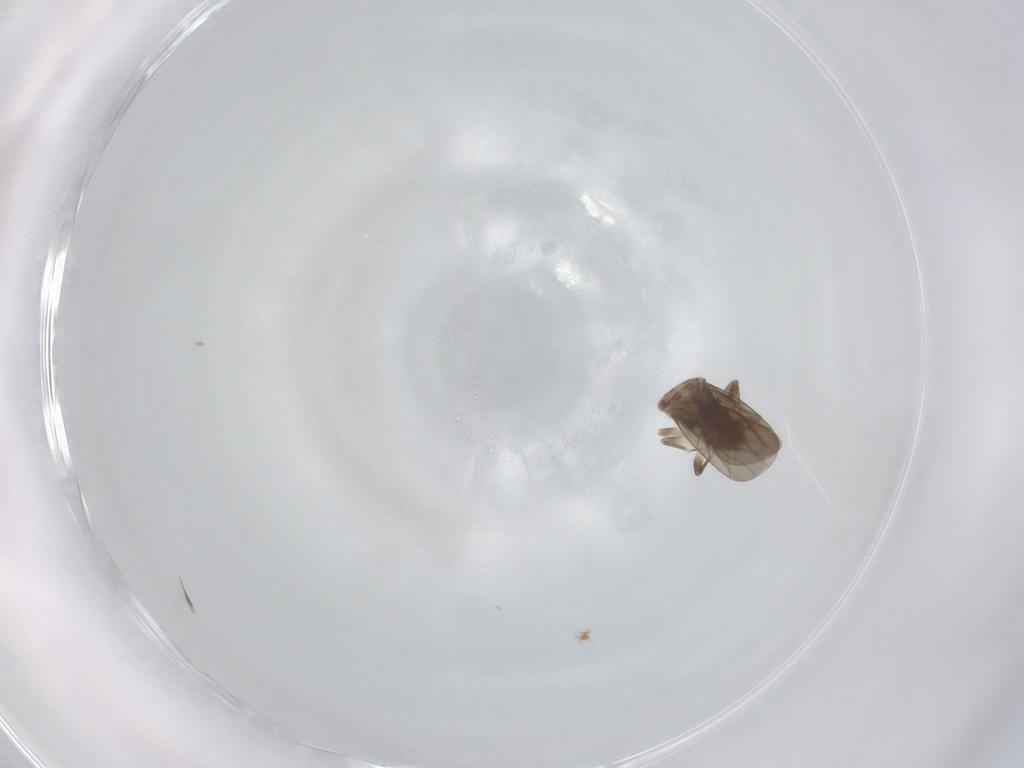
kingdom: Animalia
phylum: Arthropoda
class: Insecta
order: Psocodea
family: Lepidopsocidae
